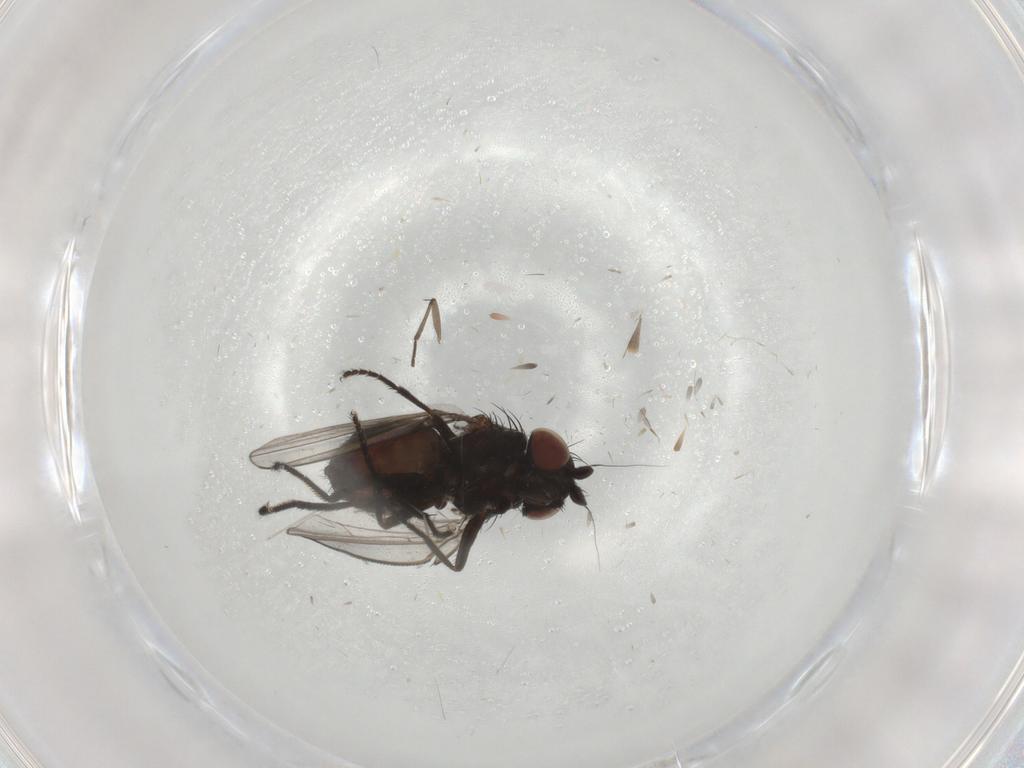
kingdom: Animalia
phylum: Arthropoda
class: Insecta
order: Diptera
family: Milichiidae
